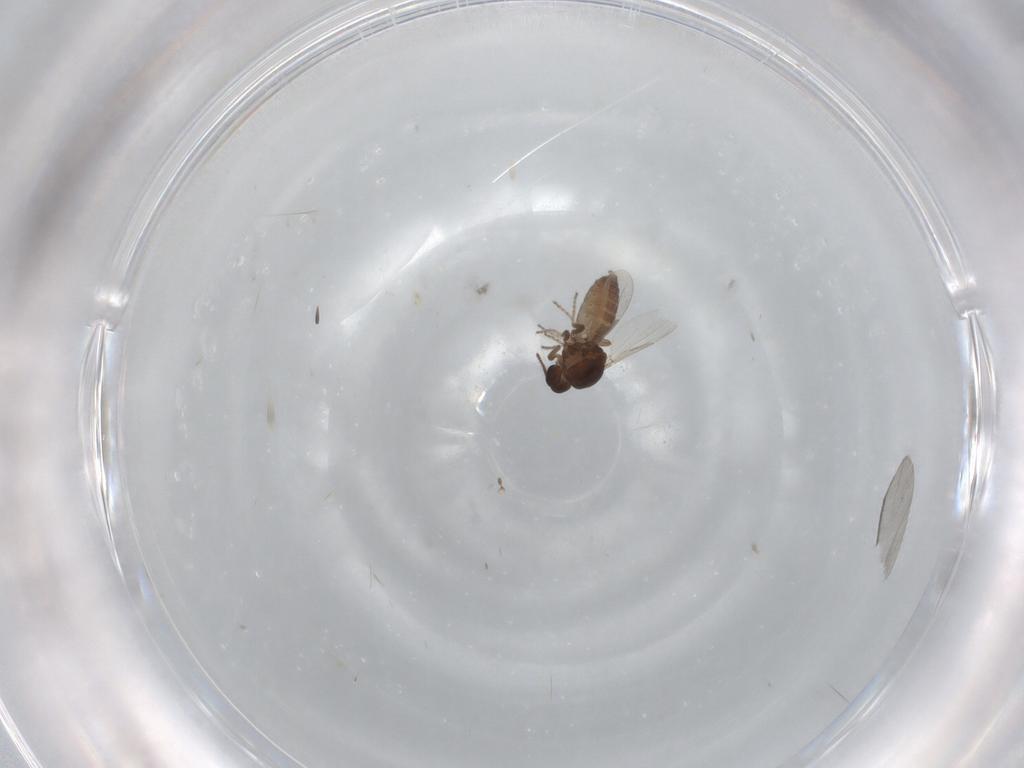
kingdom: Animalia
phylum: Arthropoda
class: Insecta
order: Diptera
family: Ceratopogonidae
